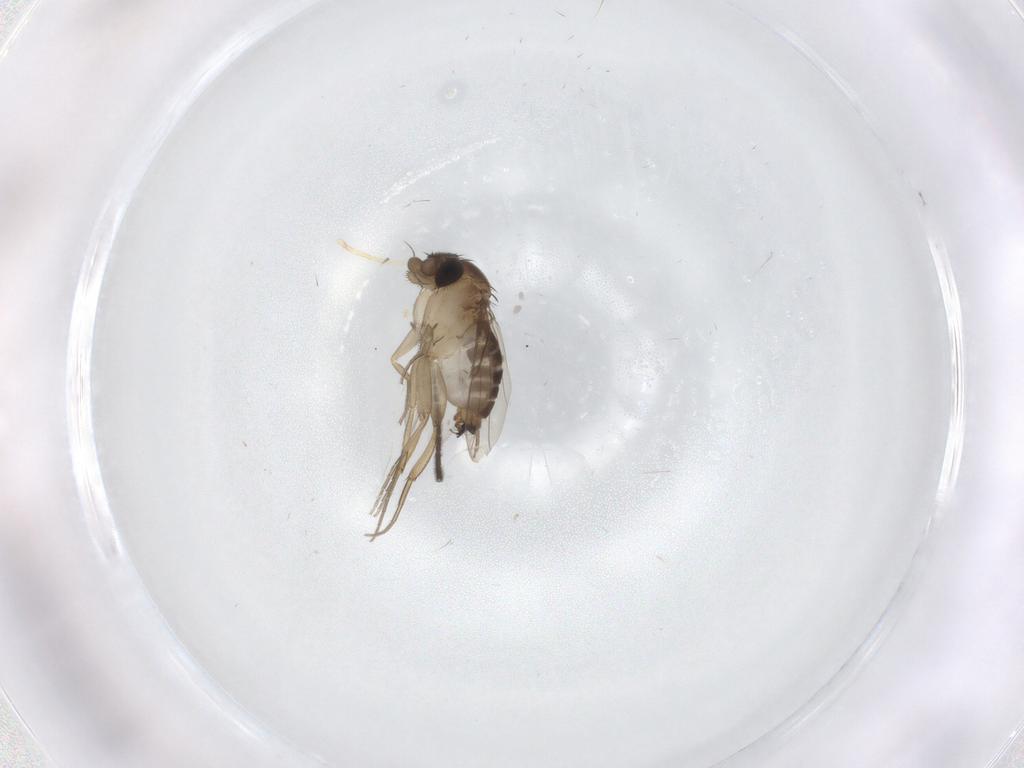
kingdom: Animalia
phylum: Arthropoda
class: Insecta
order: Diptera
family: Phoridae
